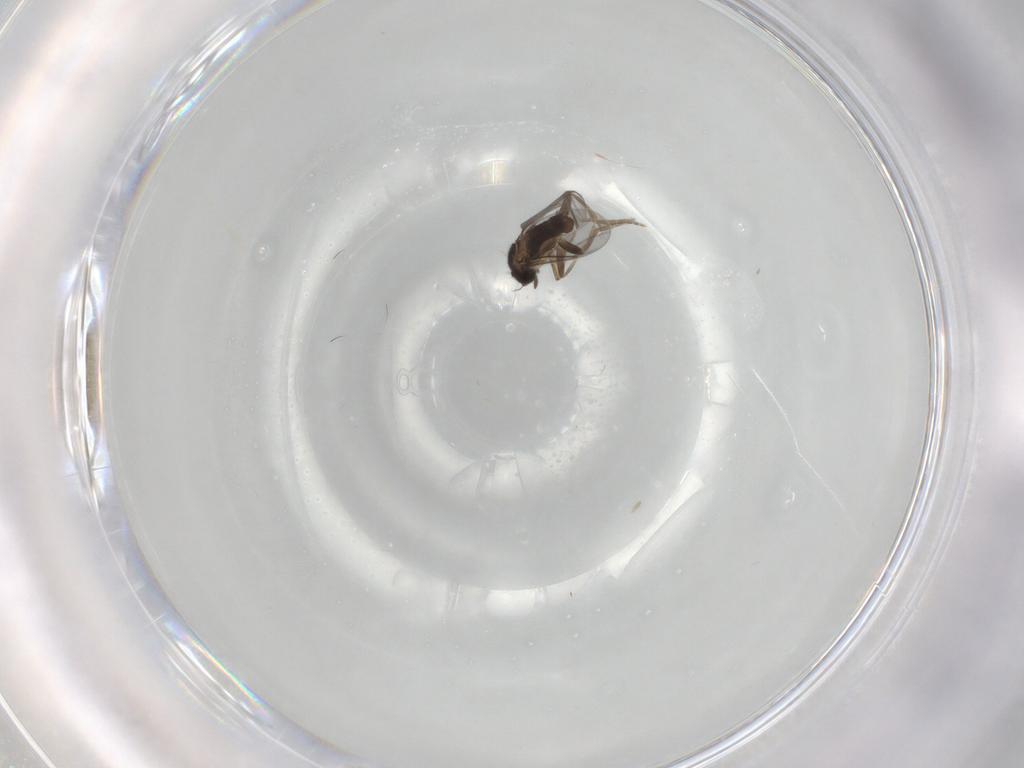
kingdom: Animalia
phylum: Arthropoda
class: Insecta
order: Diptera
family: Cecidomyiidae
